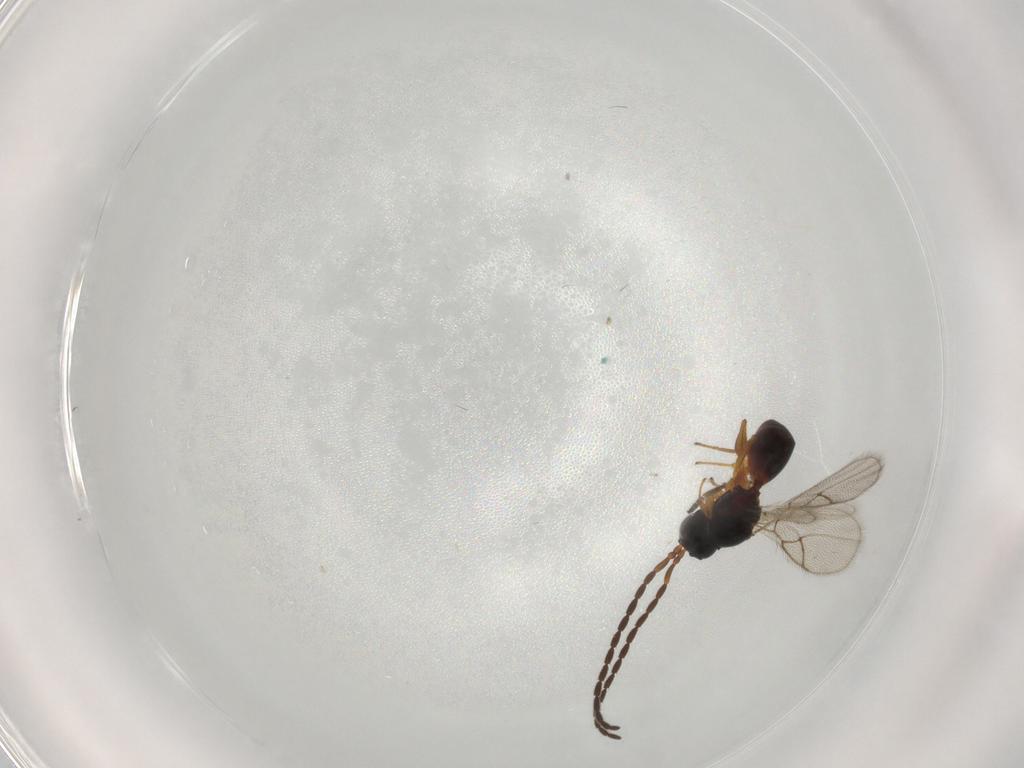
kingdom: Animalia
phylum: Arthropoda
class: Insecta
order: Hymenoptera
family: Figitidae
